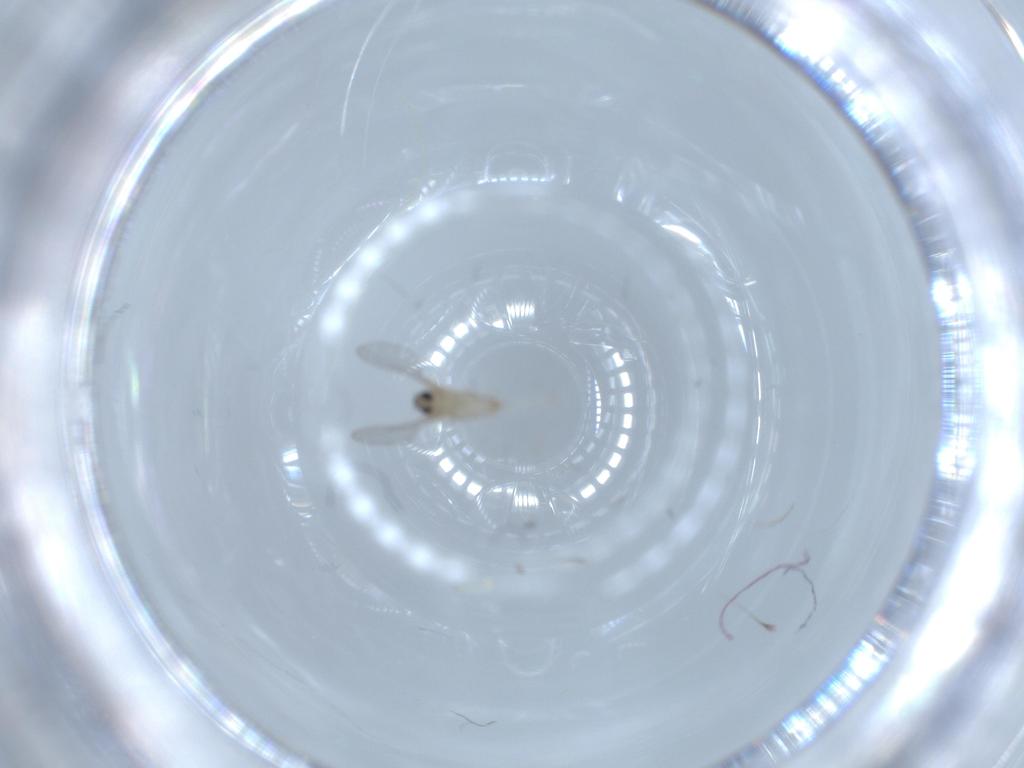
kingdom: Animalia
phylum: Arthropoda
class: Insecta
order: Diptera
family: Cecidomyiidae
